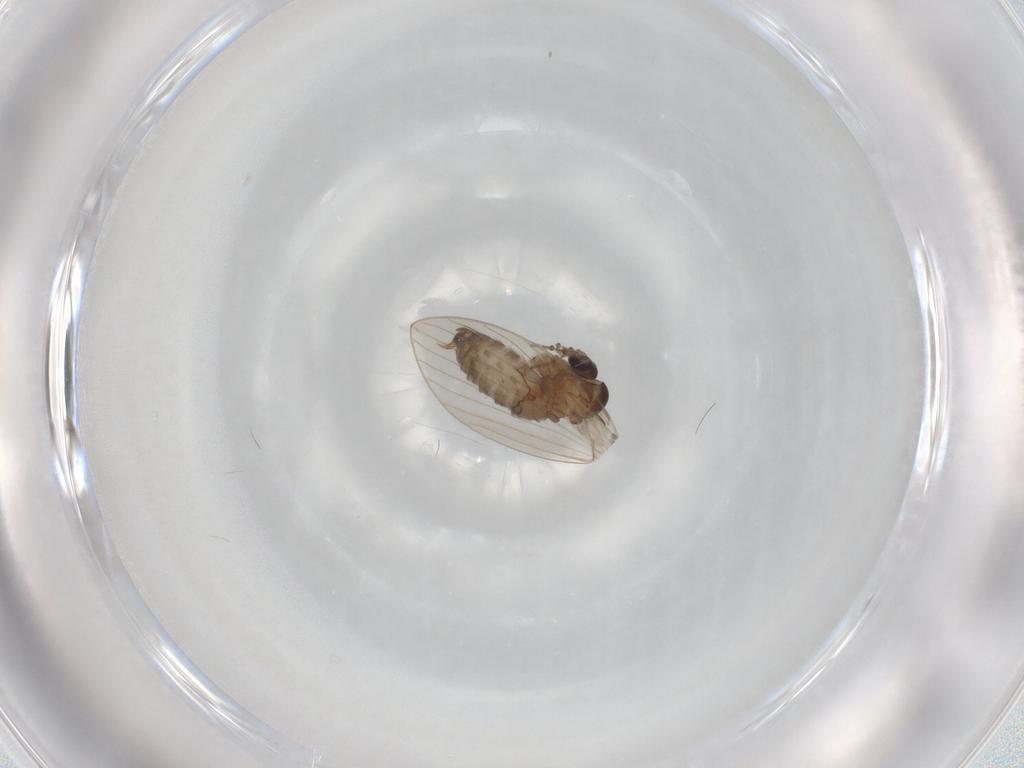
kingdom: Animalia
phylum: Arthropoda
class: Insecta
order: Diptera
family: Psychodidae
